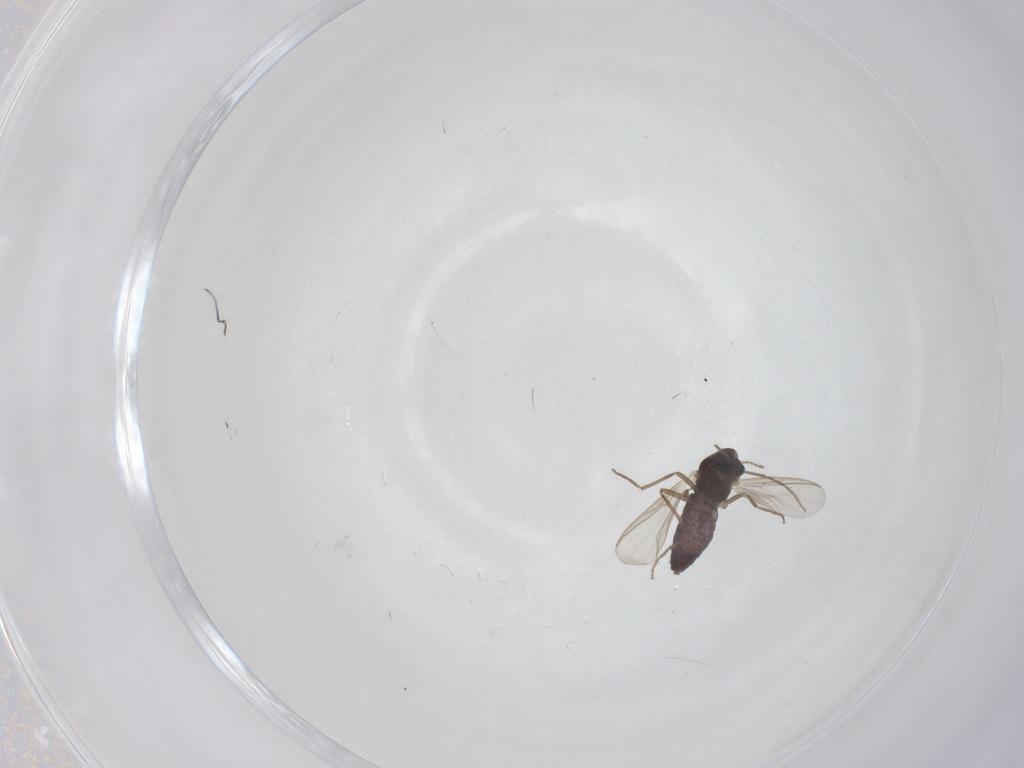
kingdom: Animalia
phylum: Arthropoda
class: Insecta
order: Diptera
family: Chironomidae
